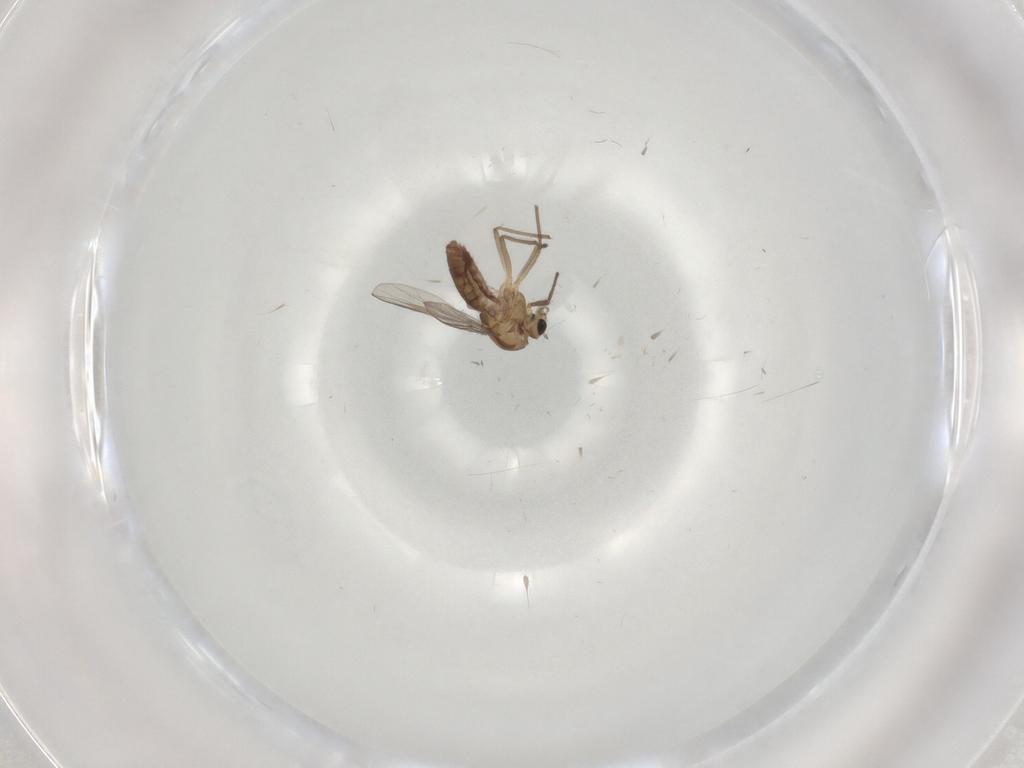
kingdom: Animalia
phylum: Arthropoda
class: Insecta
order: Diptera
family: Chironomidae
